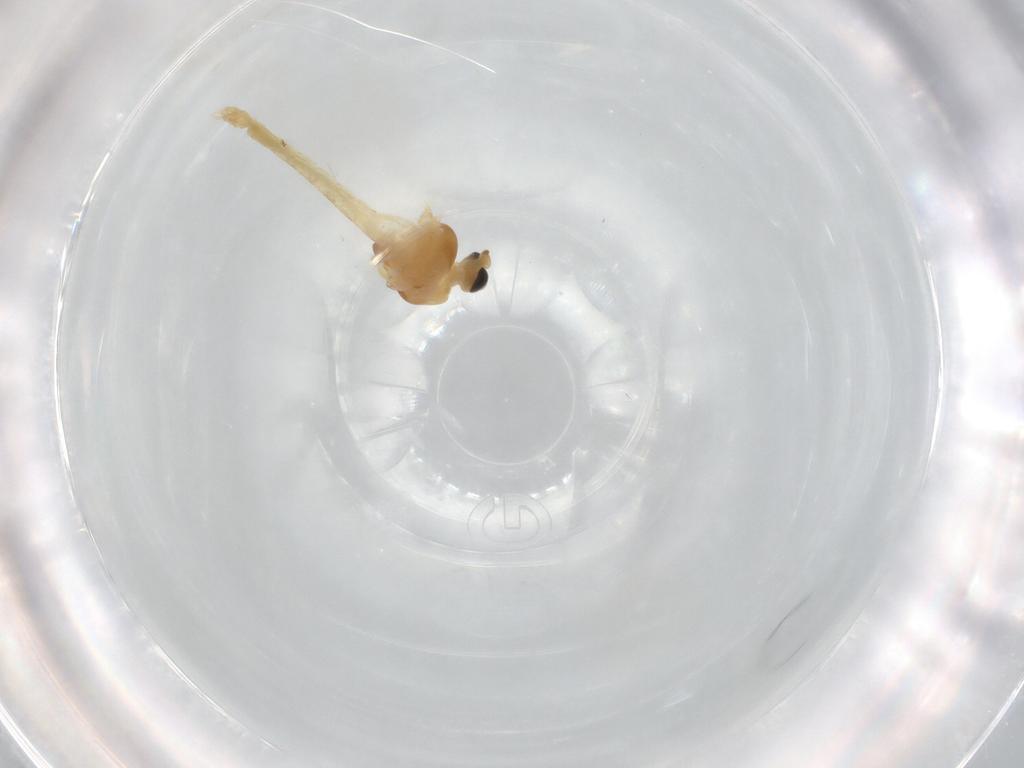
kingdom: Animalia
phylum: Arthropoda
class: Insecta
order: Diptera
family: Chironomidae
